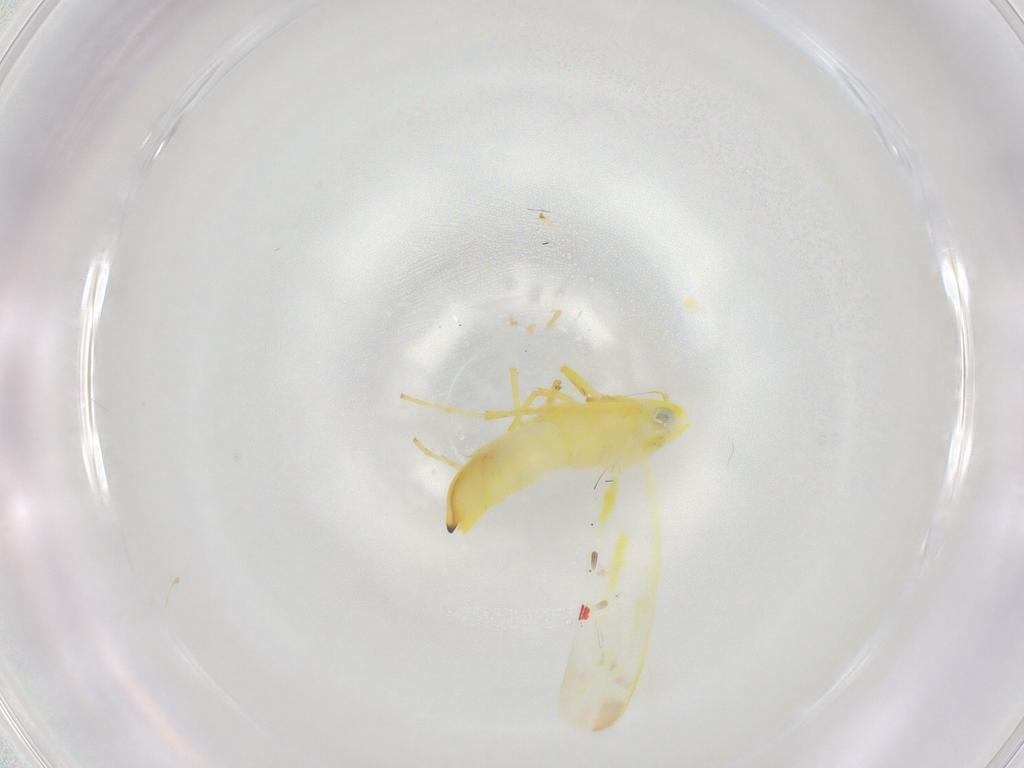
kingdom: Animalia
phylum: Arthropoda
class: Insecta
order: Hemiptera
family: Cicadellidae
